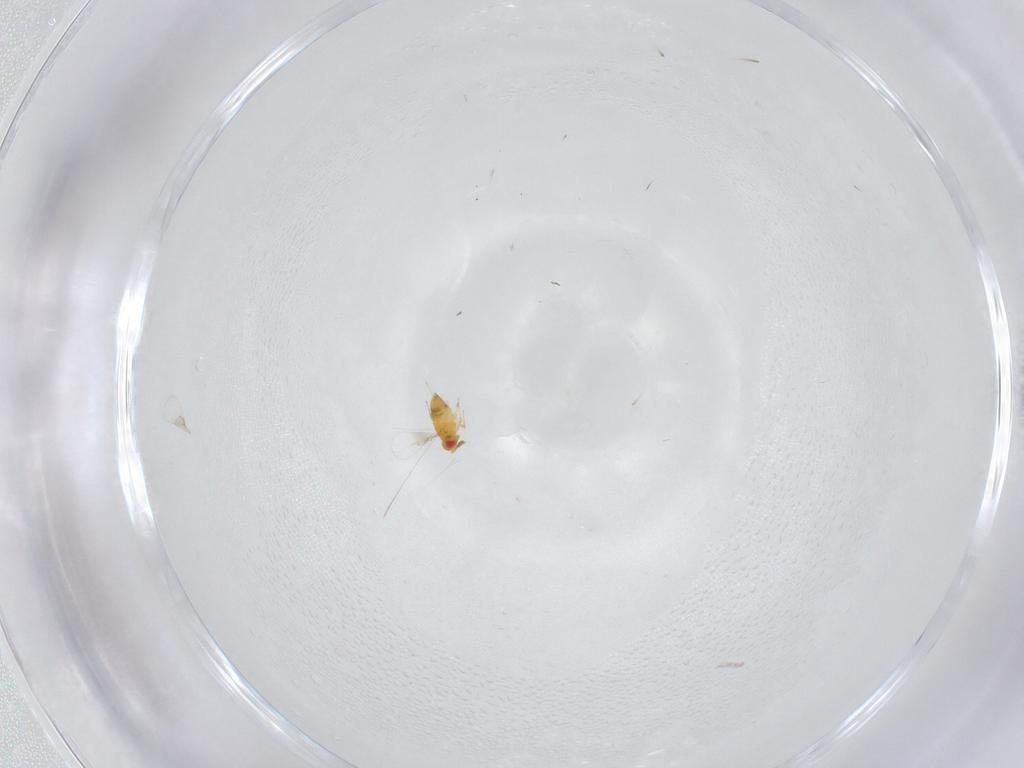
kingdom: Animalia
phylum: Arthropoda
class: Insecta
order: Hymenoptera
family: Trichogrammatidae
